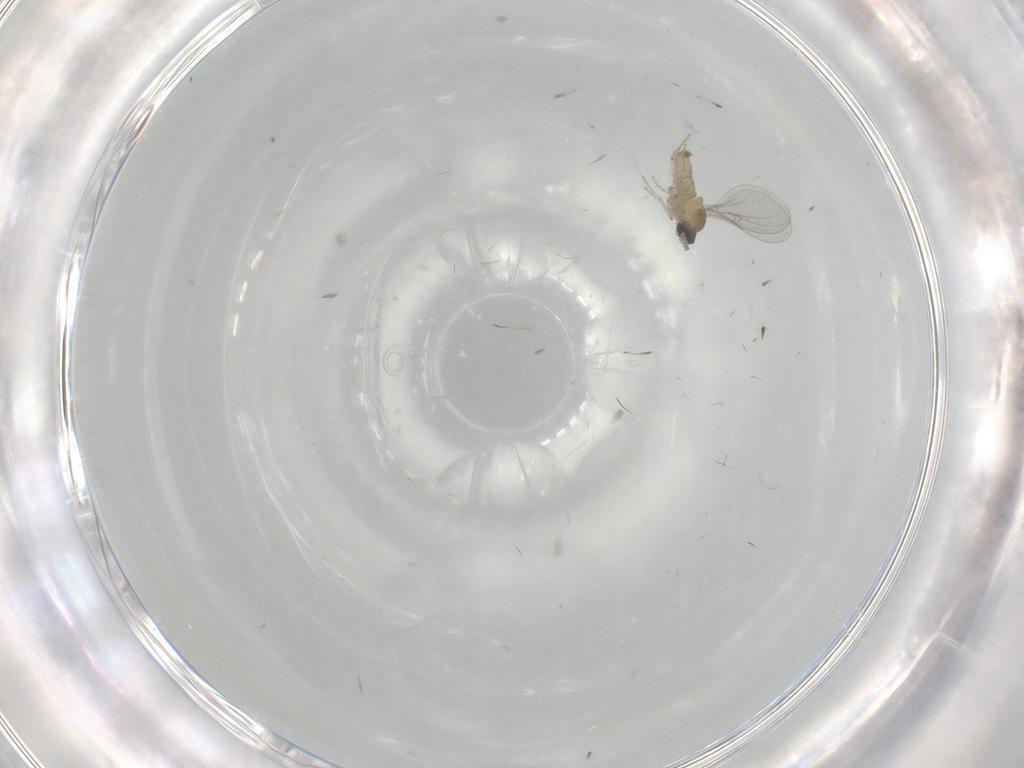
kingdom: Animalia
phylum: Arthropoda
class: Insecta
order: Diptera
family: Cecidomyiidae
